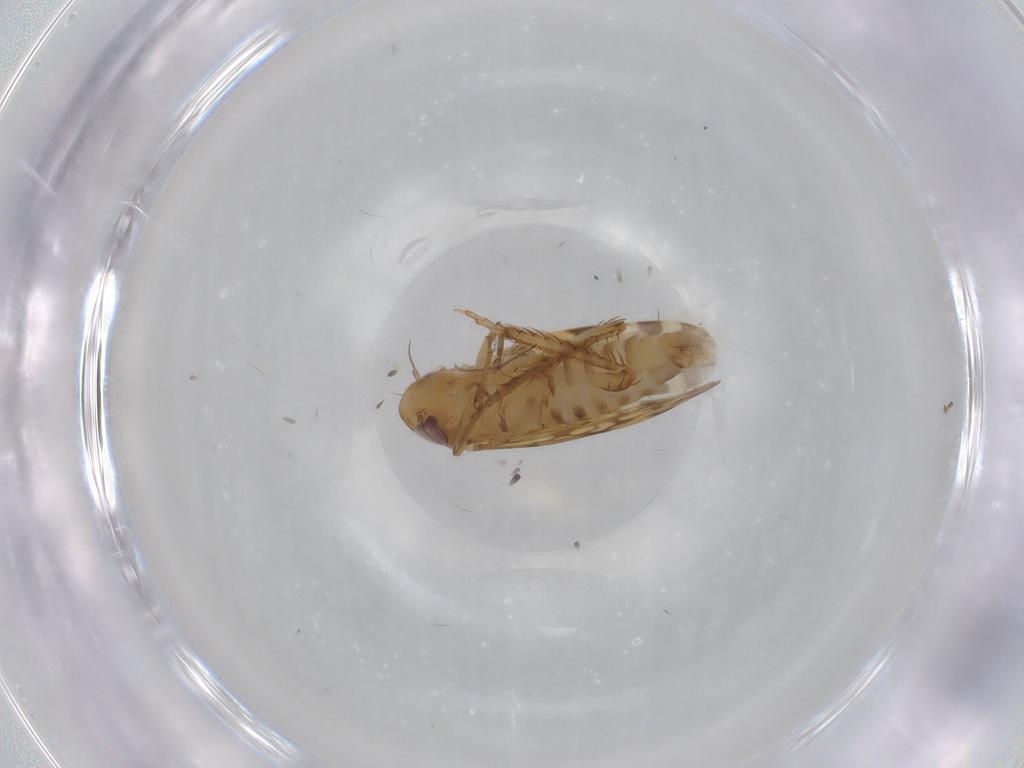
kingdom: Animalia
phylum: Arthropoda
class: Insecta
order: Hemiptera
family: Cicadellidae
